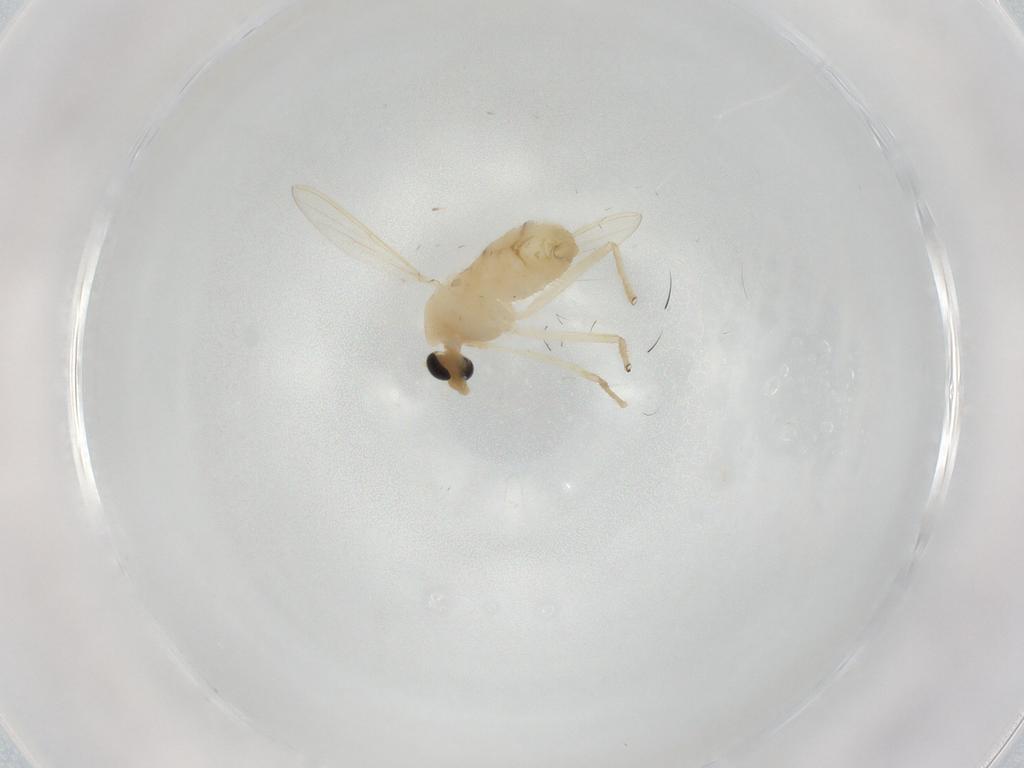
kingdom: Animalia
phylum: Arthropoda
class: Insecta
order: Diptera
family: Chironomidae
